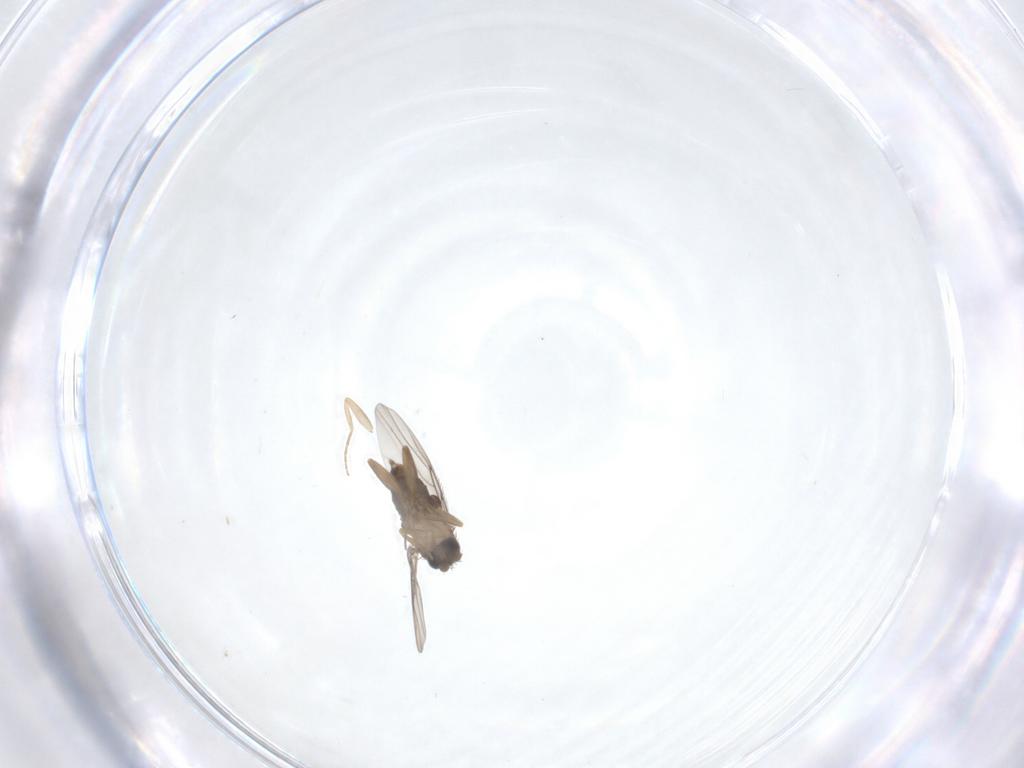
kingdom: Animalia
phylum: Arthropoda
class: Insecta
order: Diptera
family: Phoridae
